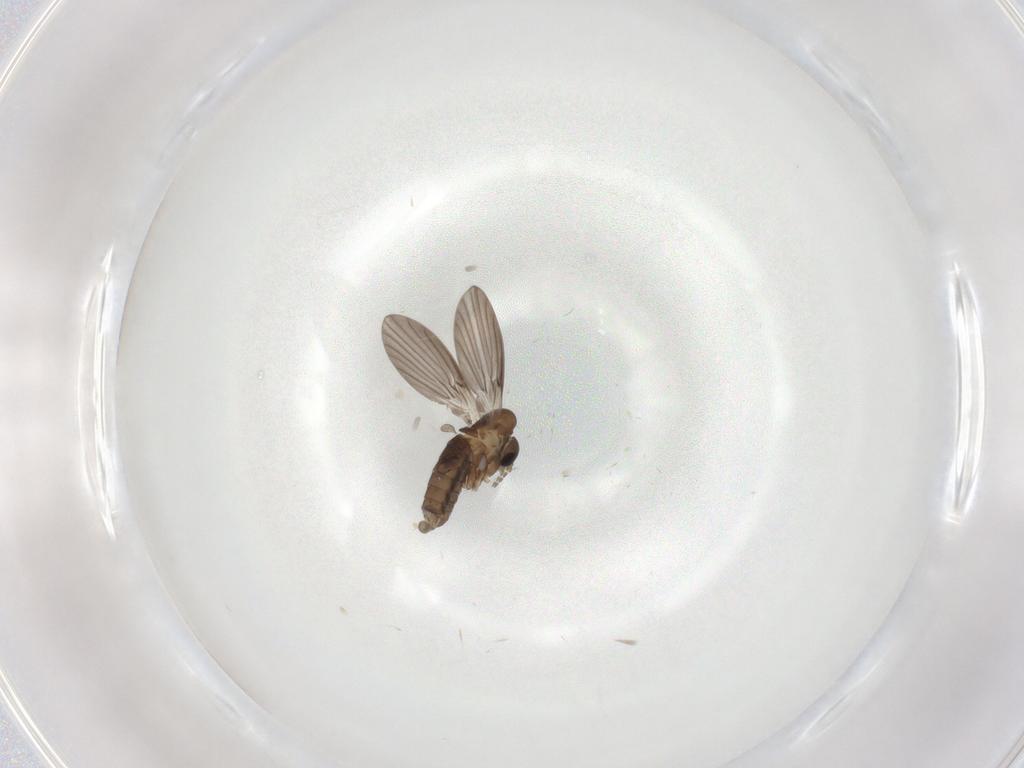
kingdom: Animalia
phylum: Arthropoda
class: Insecta
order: Diptera
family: Sciaridae
